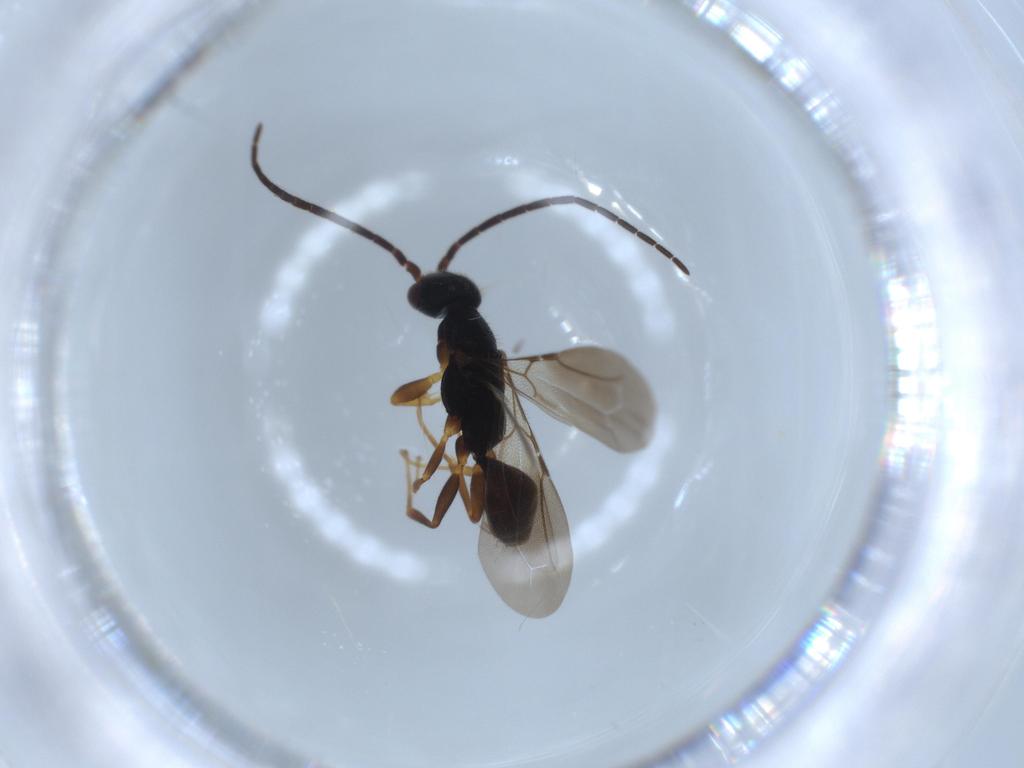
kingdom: Animalia
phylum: Arthropoda
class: Insecta
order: Hymenoptera
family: Bethylidae
